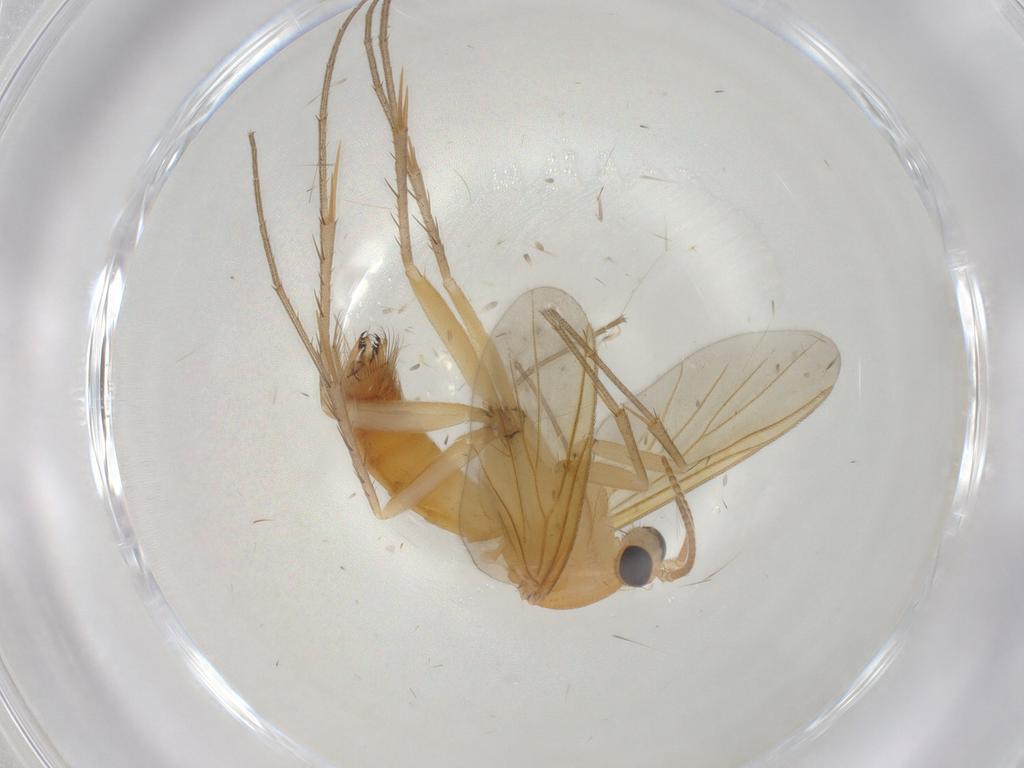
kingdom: Animalia
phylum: Arthropoda
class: Insecta
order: Diptera
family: Mycetophilidae
